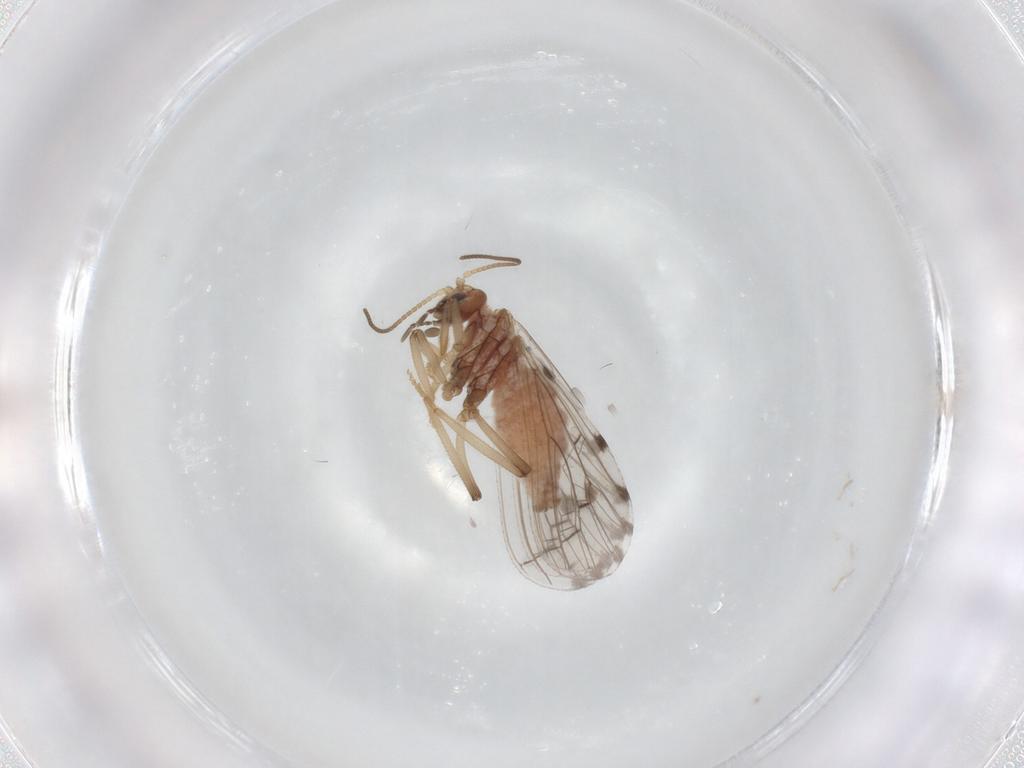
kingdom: Animalia
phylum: Arthropoda
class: Insecta
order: Neuroptera
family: Coniopterygidae
